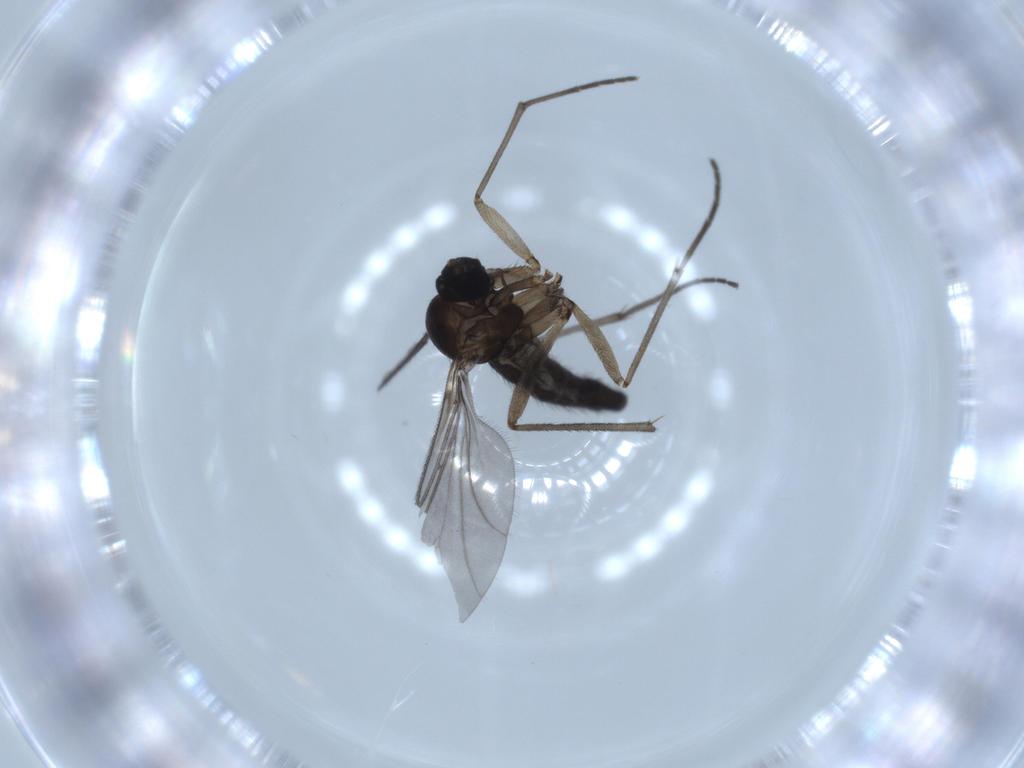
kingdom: Animalia
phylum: Arthropoda
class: Insecta
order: Diptera
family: Sciaridae
